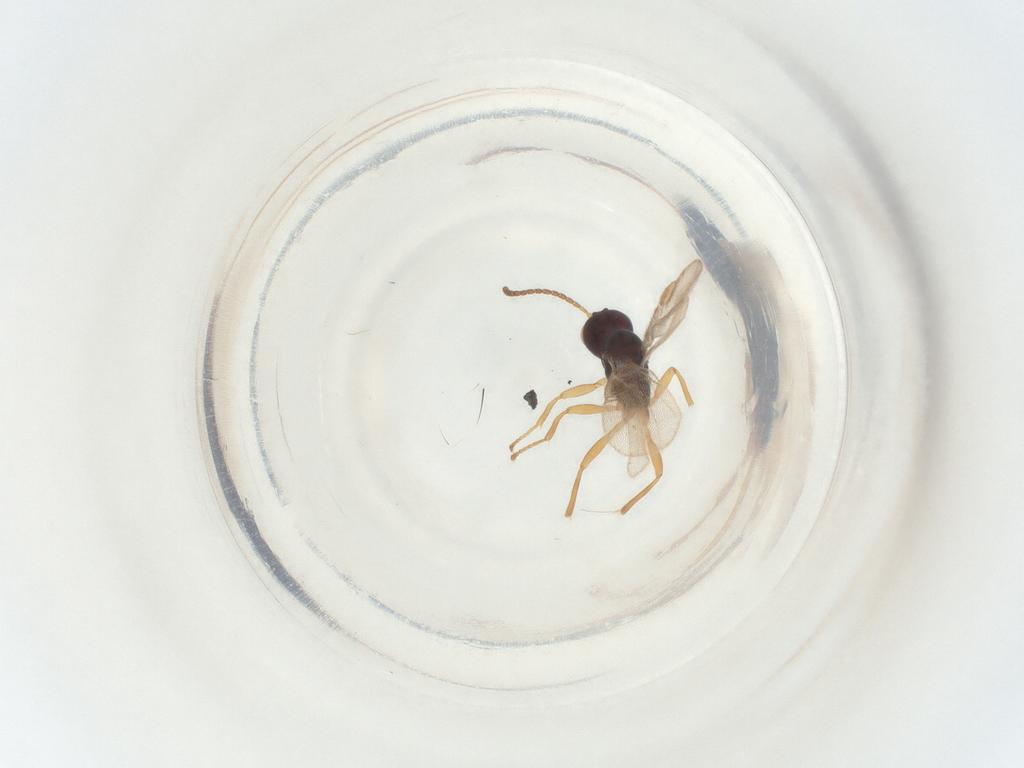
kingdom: Animalia
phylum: Arthropoda
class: Insecta
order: Hymenoptera
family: Braconidae
